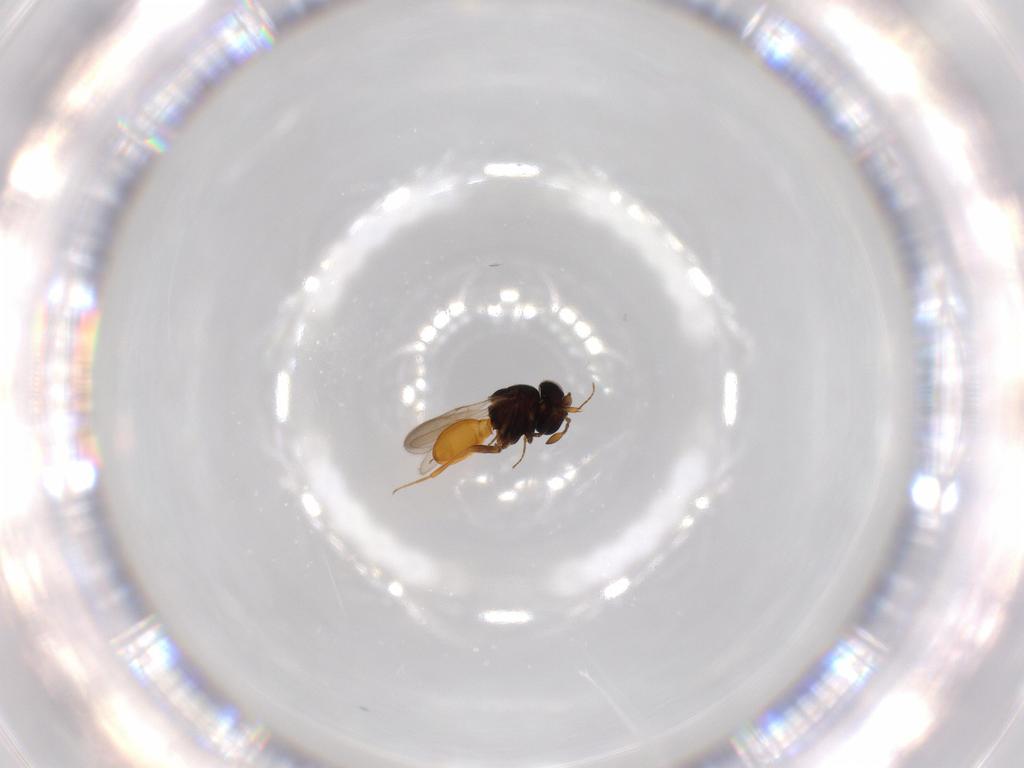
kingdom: Animalia
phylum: Arthropoda
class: Insecta
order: Hymenoptera
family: Scelionidae
